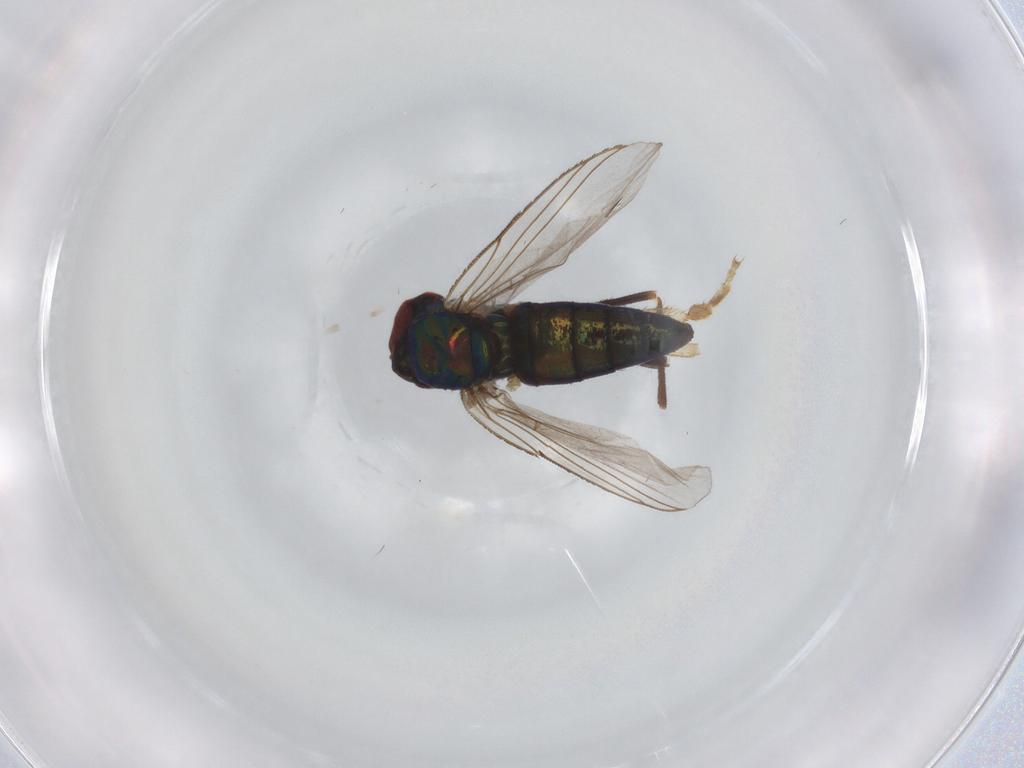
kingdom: Animalia
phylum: Arthropoda
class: Insecta
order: Diptera
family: Dolichopodidae
